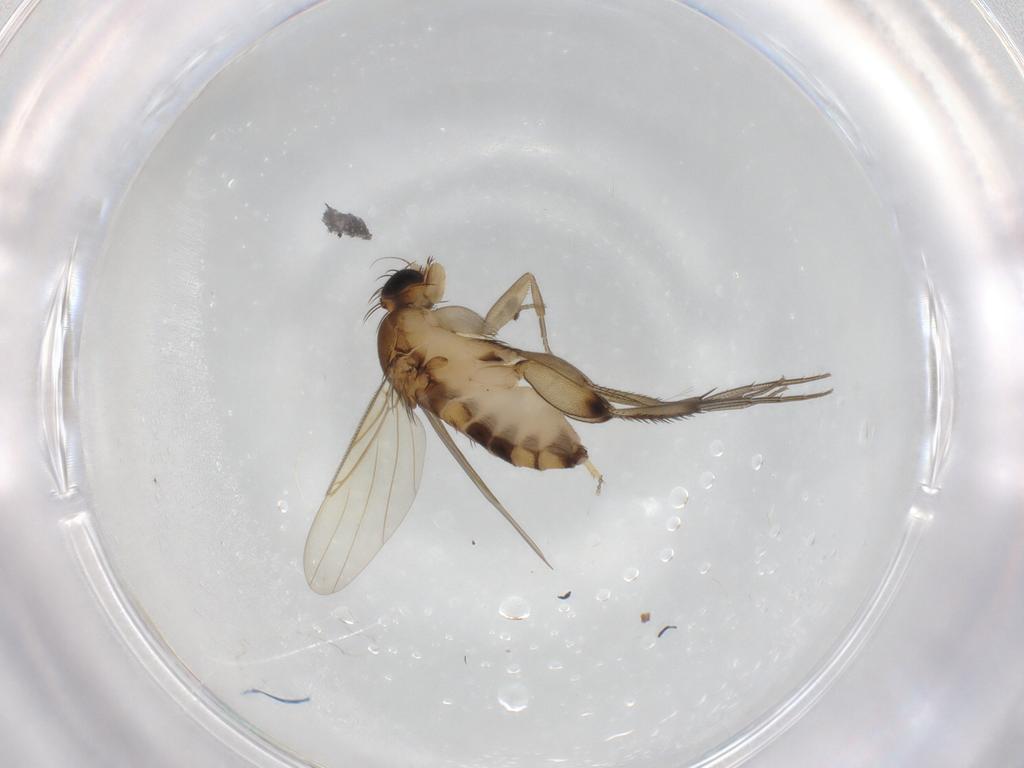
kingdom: Animalia
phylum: Arthropoda
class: Insecta
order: Diptera
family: Phoridae
